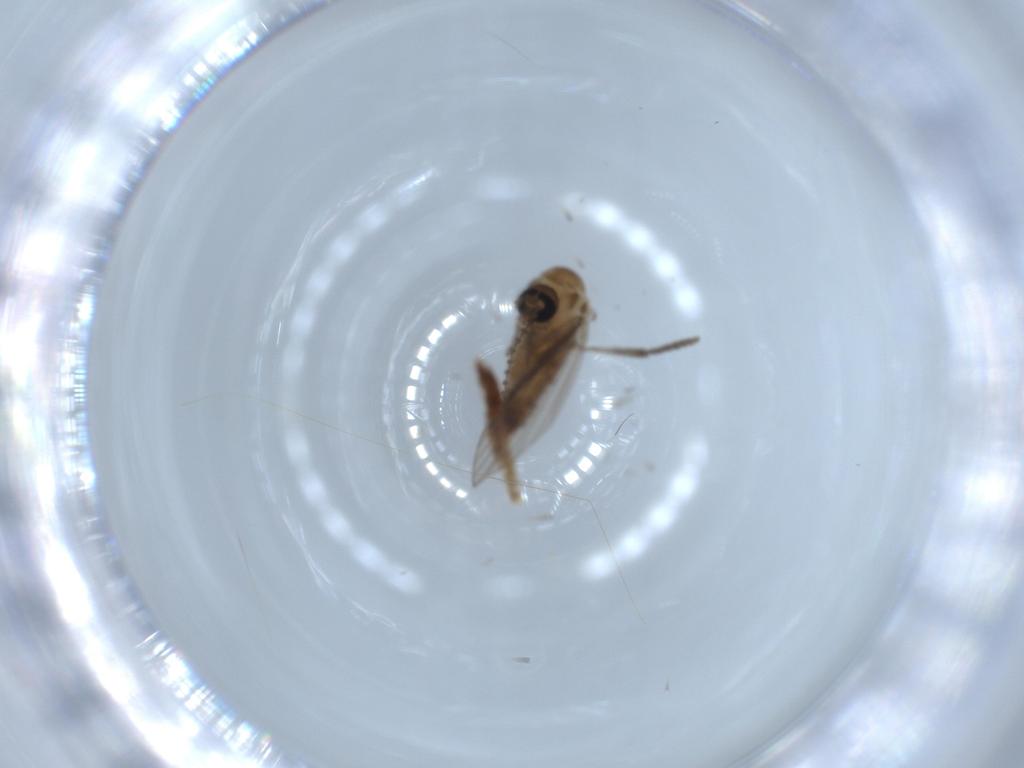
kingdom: Animalia
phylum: Arthropoda
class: Insecta
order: Diptera
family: Psychodidae
